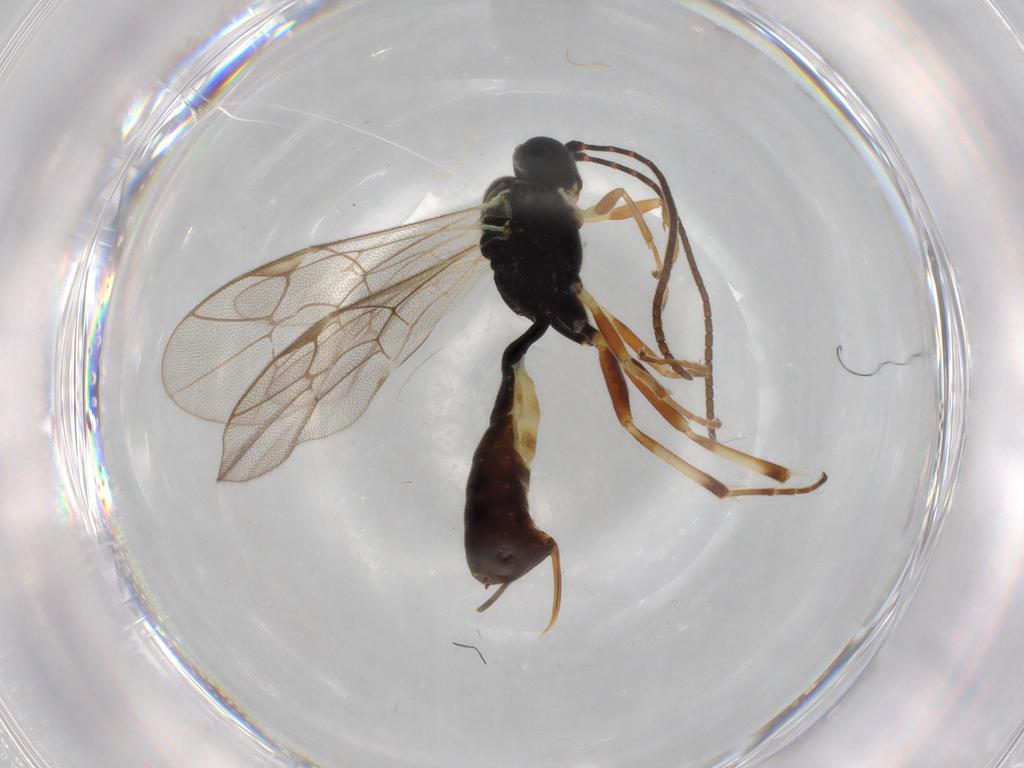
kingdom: Animalia
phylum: Arthropoda
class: Insecta
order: Hymenoptera
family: Ichneumonidae
